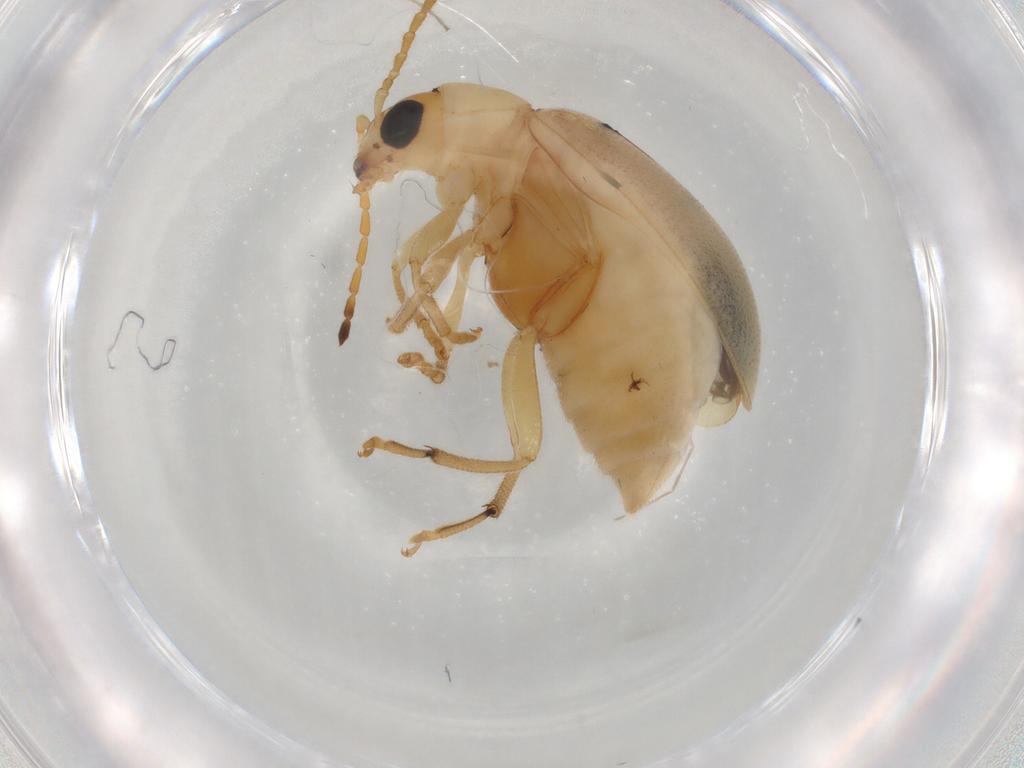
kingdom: Animalia
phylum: Arthropoda
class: Insecta
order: Coleoptera
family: Chrysomelidae
